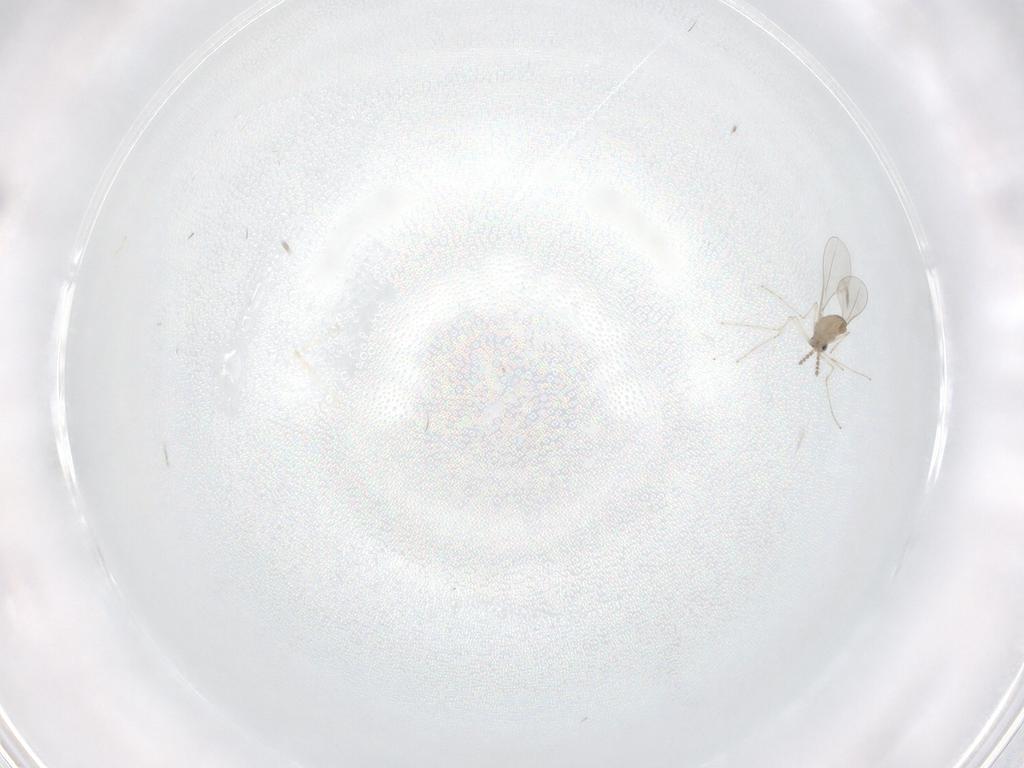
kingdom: Animalia
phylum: Arthropoda
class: Insecta
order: Diptera
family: Cecidomyiidae
